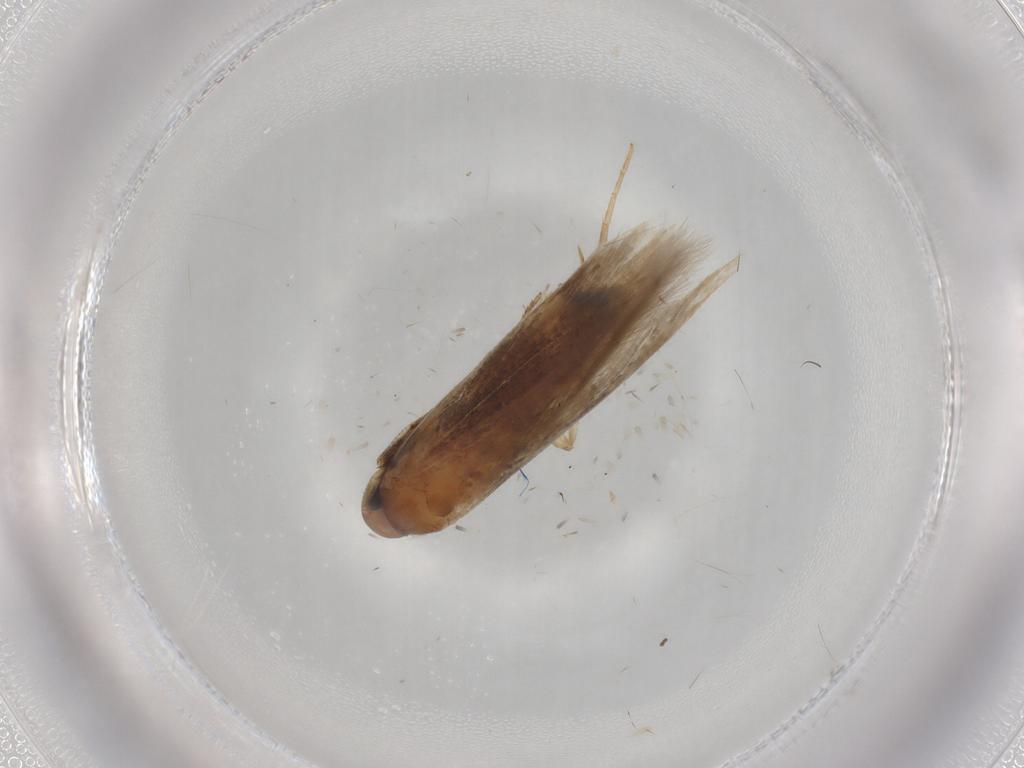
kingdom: Animalia
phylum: Arthropoda
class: Insecta
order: Lepidoptera
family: Cosmopterigidae
